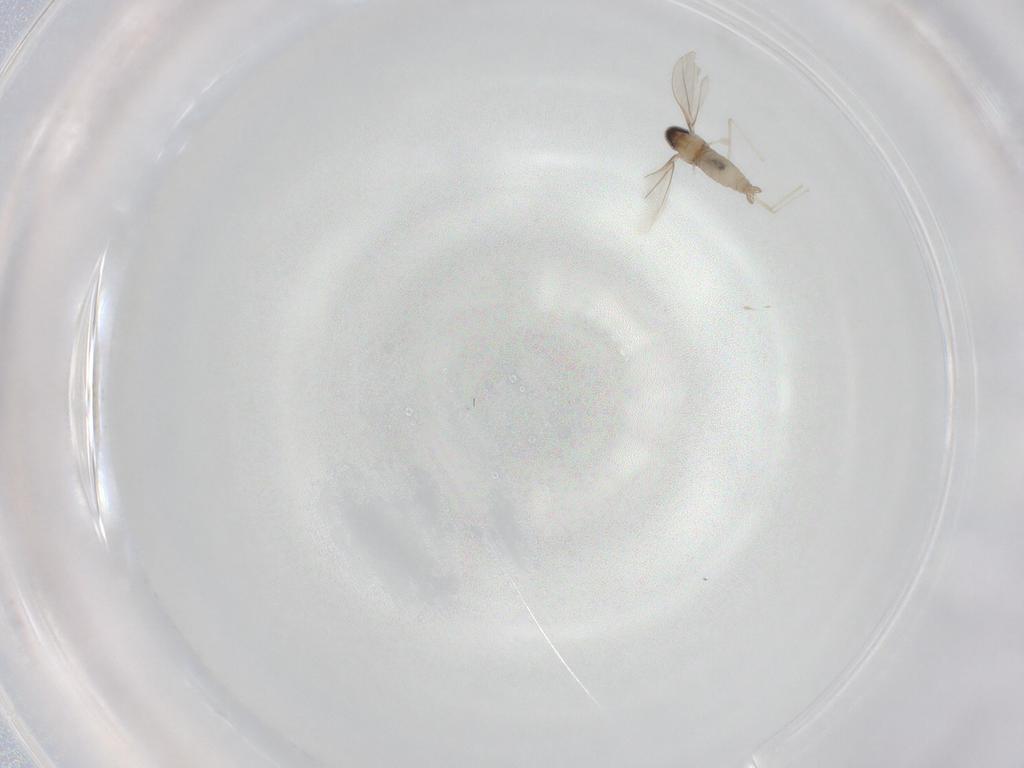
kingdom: Animalia
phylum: Arthropoda
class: Insecta
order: Diptera
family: Cecidomyiidae
